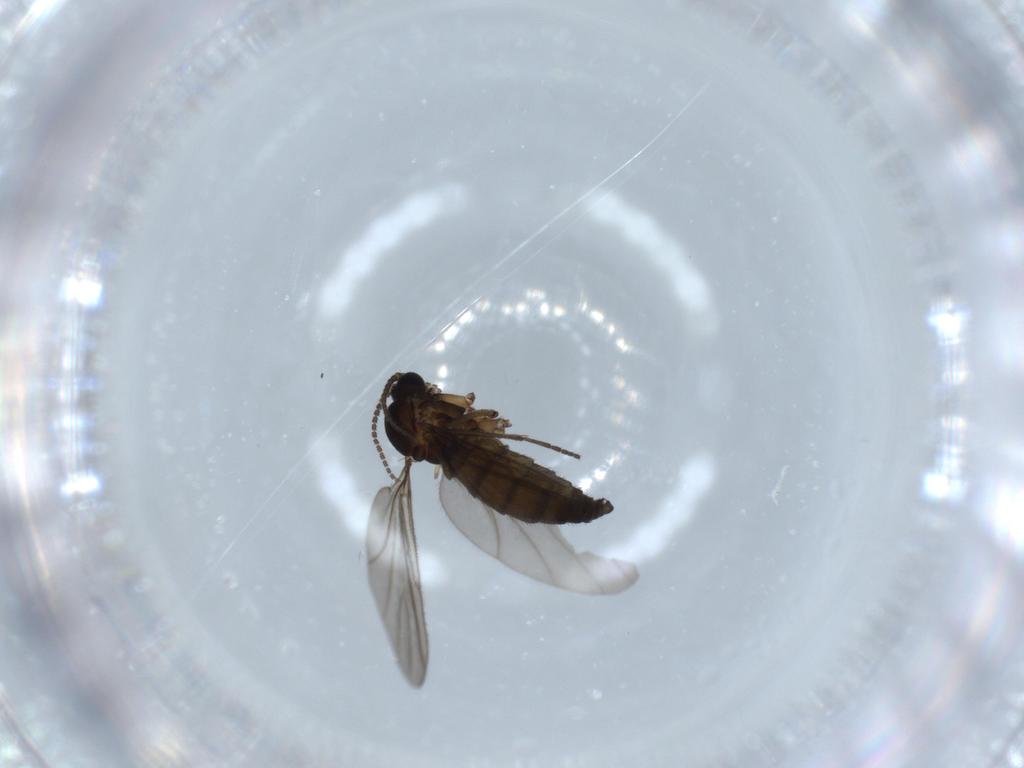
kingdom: Animalia
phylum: Arthropoda
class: Insecta
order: Diptera
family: Sciaridae
